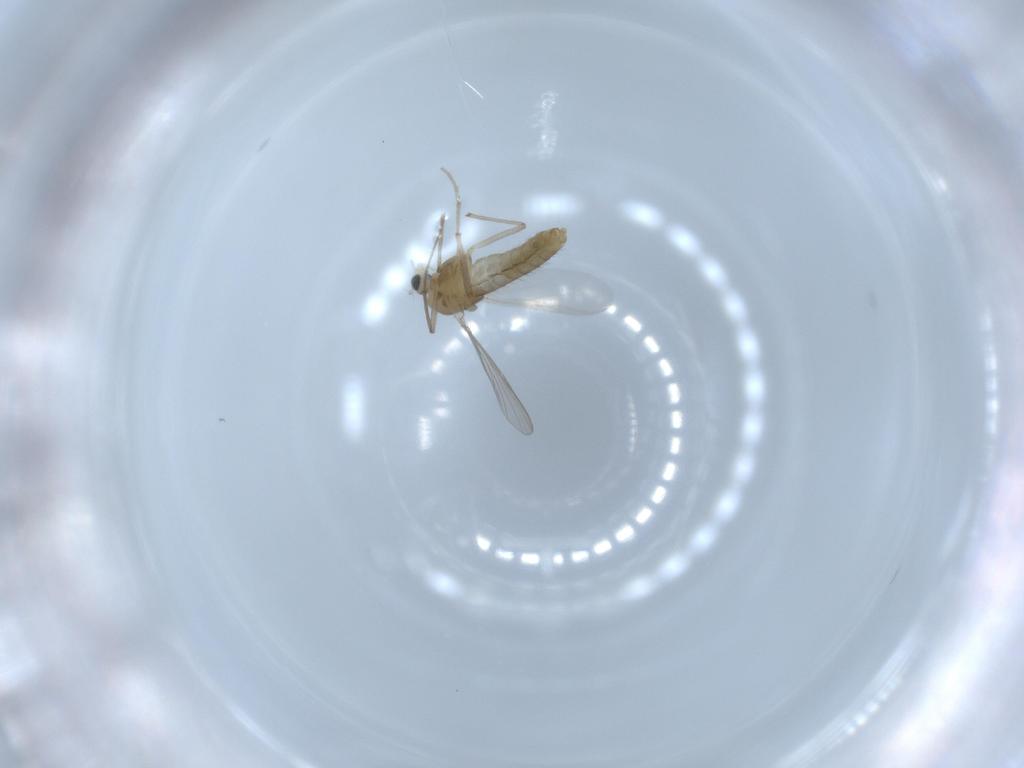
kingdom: Animalia
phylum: Arthropoda
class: Insecta
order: Diptera
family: Chironomidae
